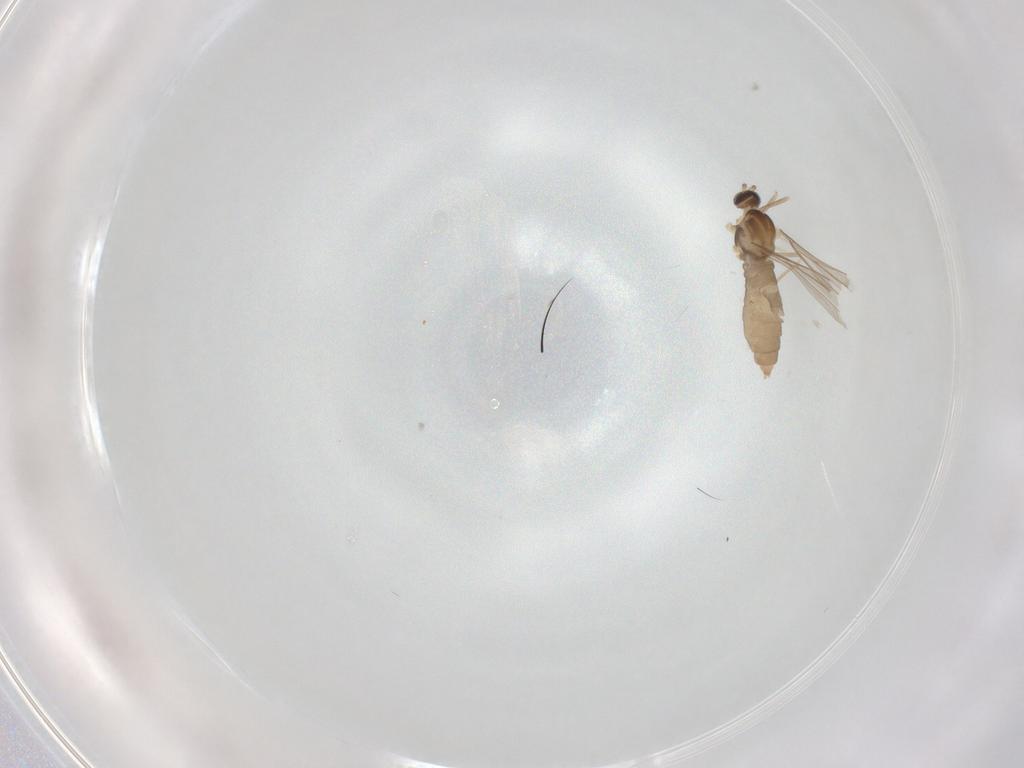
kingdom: Animalia
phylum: Arthropoda
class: Insecta
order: Diptera
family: Cecidomyiidae
